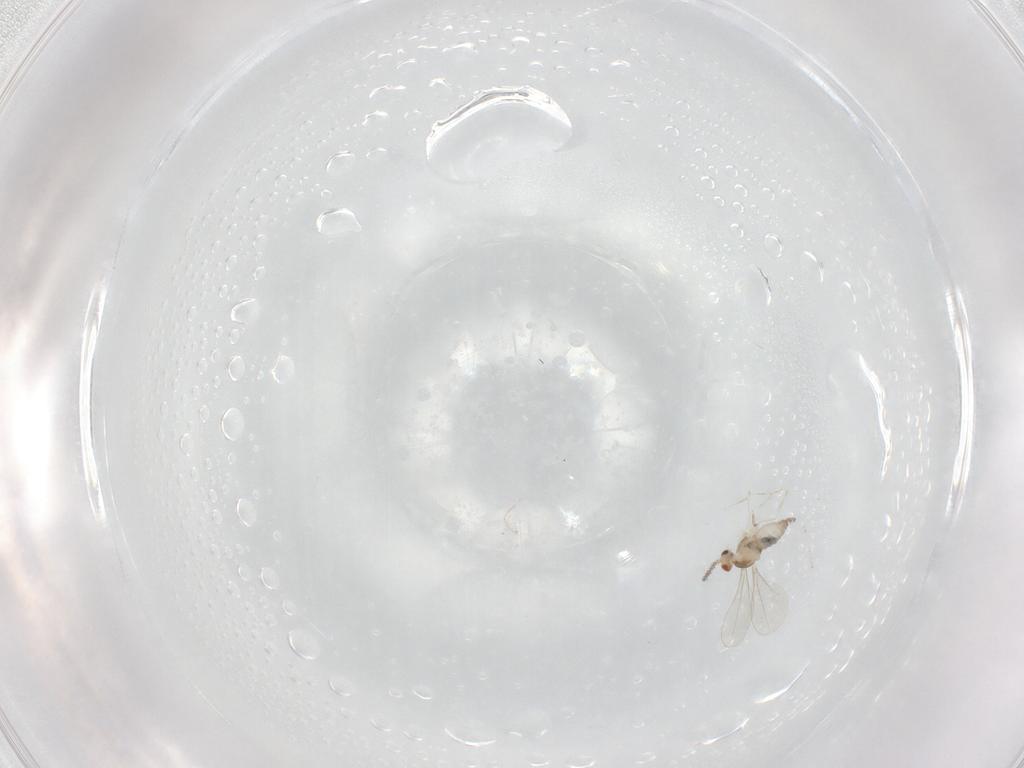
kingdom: Animalia
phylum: Arthropoda
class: Insecta
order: Diptera
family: Cecidomyiidae
